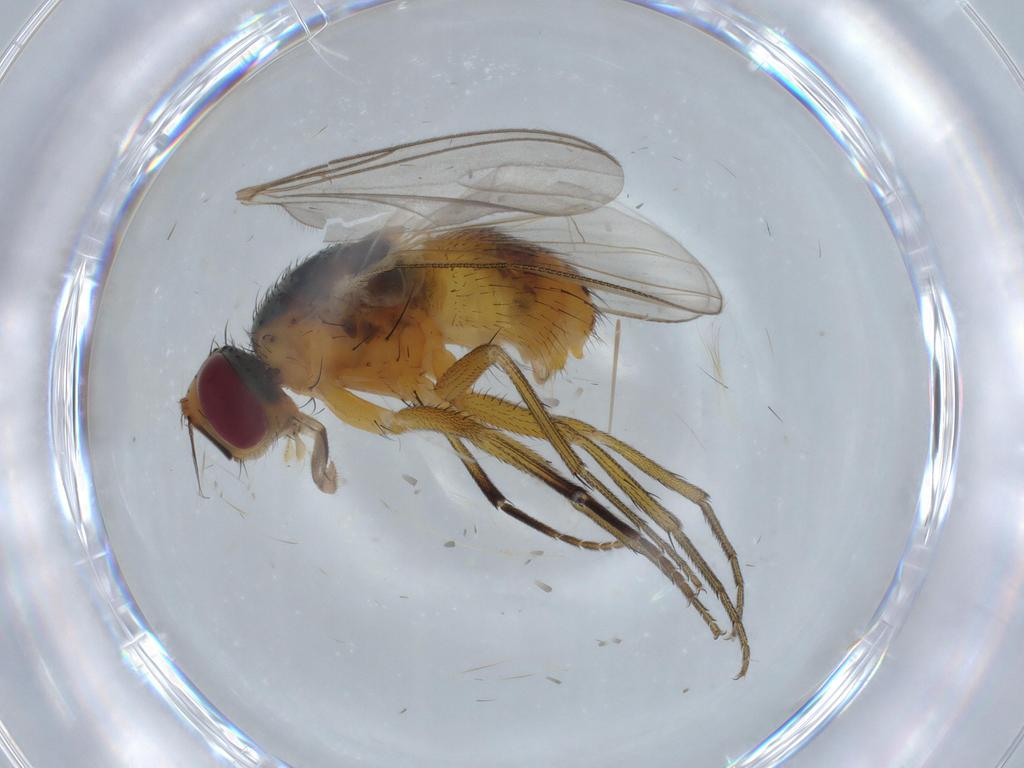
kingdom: Animalia
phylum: Arthropoda
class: Insecta
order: Diptera
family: Muscidae
